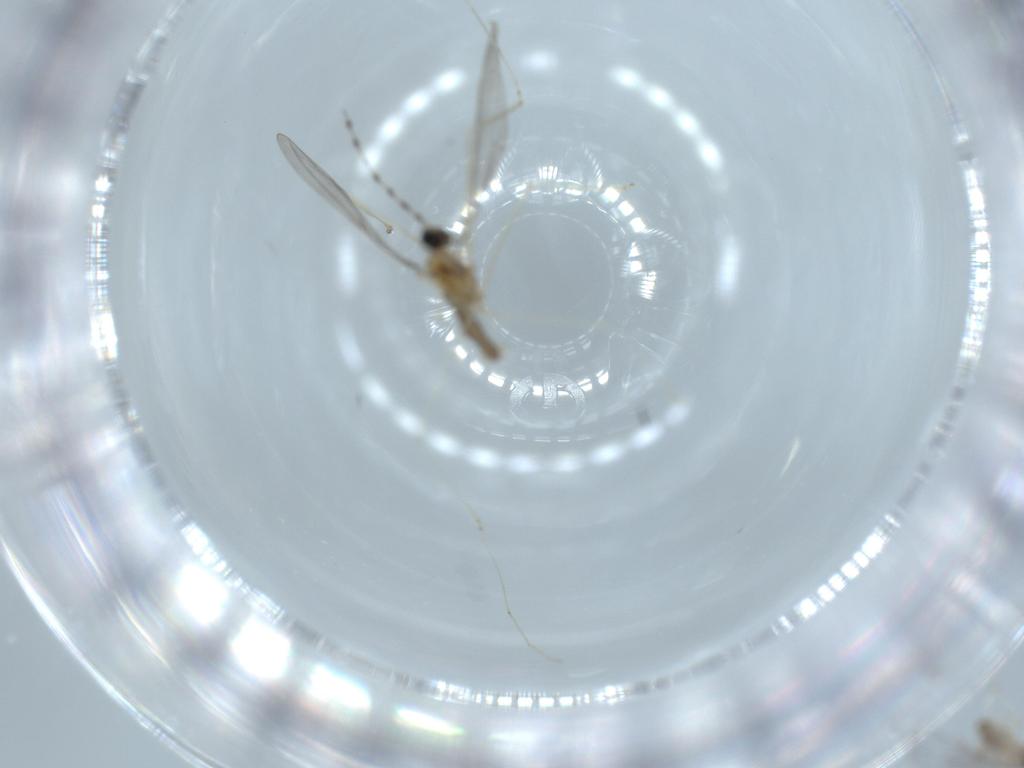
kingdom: Animalia
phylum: Arthropoda
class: Insecta
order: Diptera
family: Cecidomyiidae
